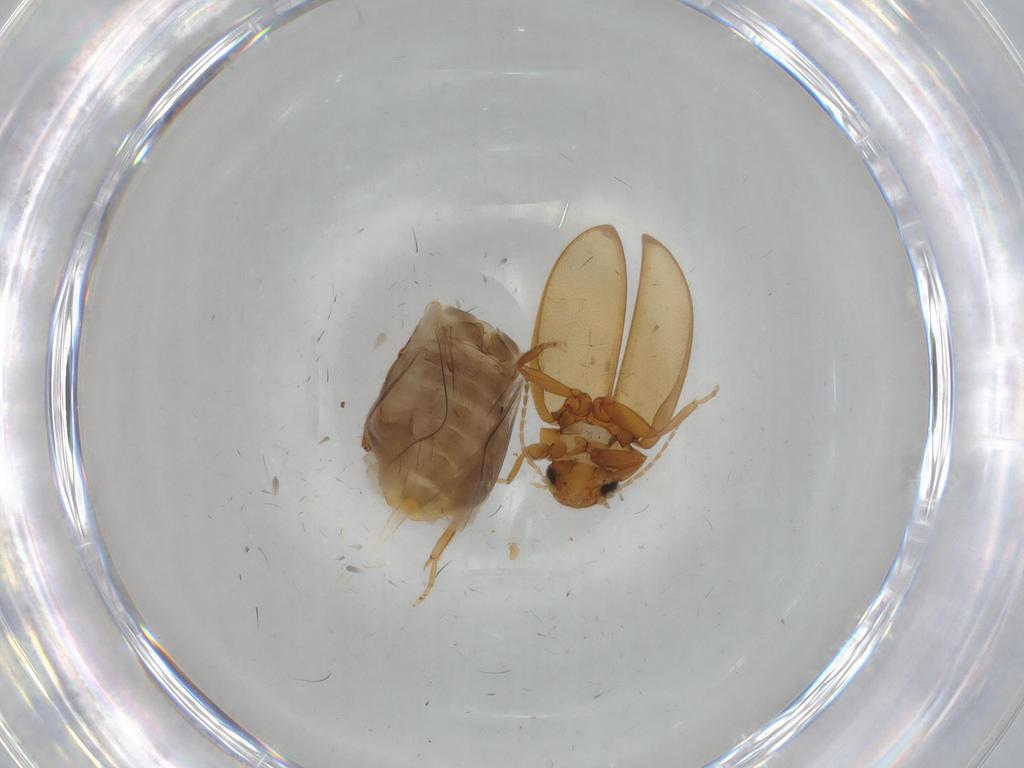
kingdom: Animalia
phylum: Arthropoda
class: Insecta
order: Coleoptera
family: Scirtidae
